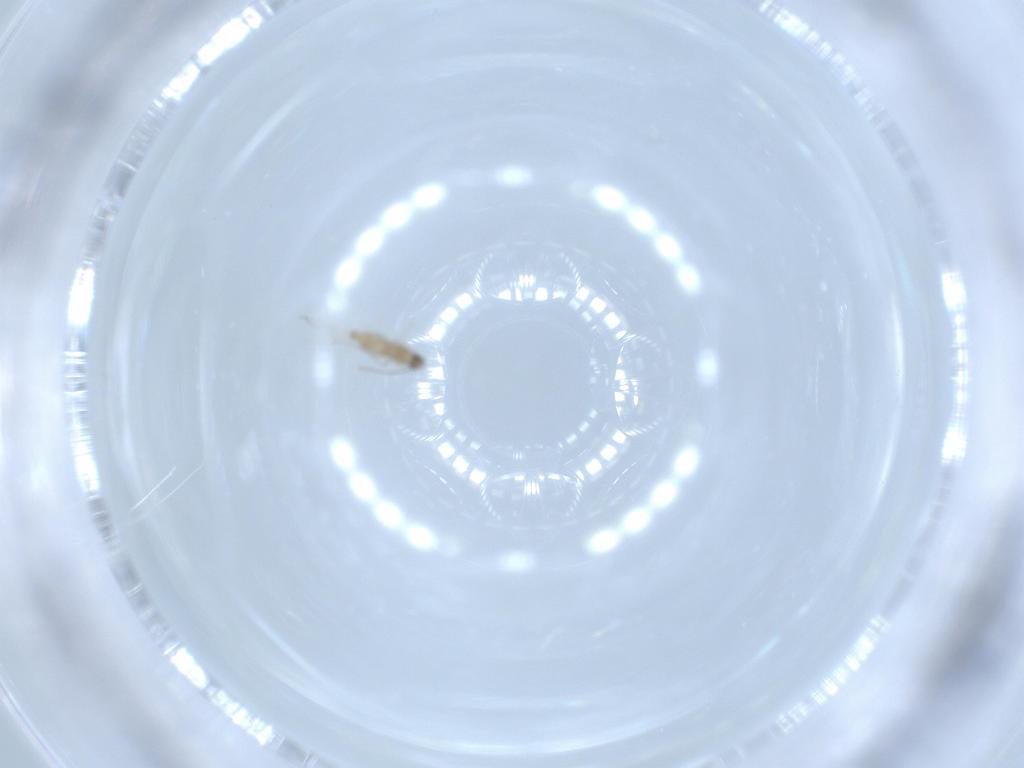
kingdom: Animalia
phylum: Arthropoda
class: Insecta
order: Diptera
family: Cecidomyiidae
